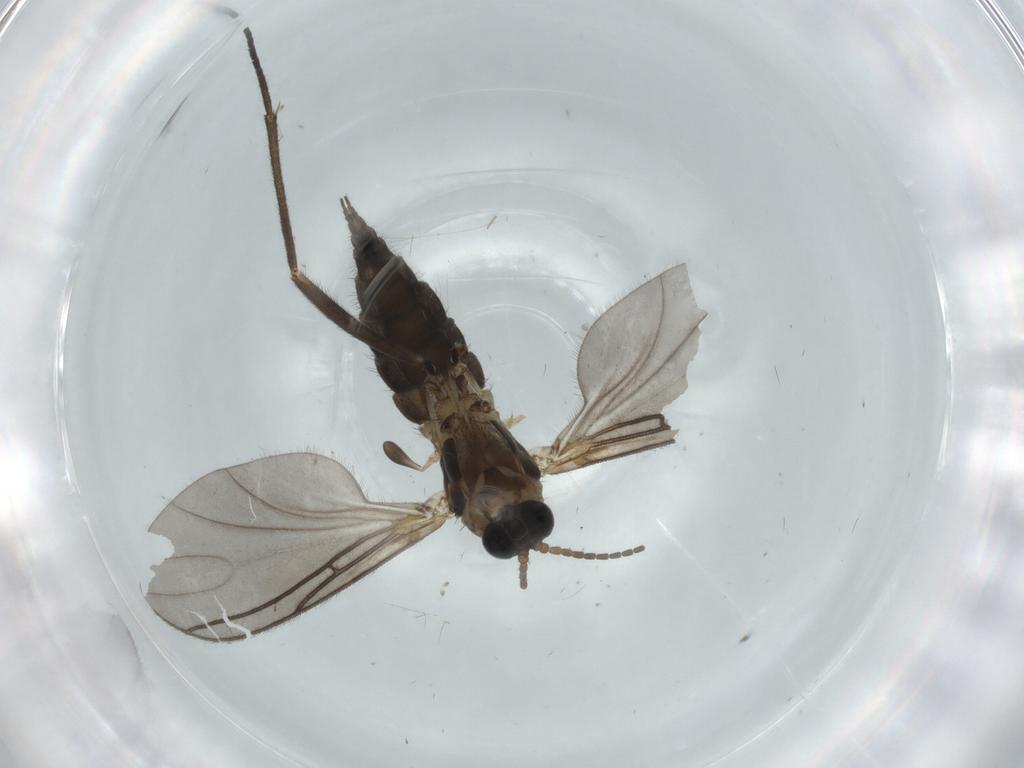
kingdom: Animalia
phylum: Arthropoda
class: Insecta
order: Diptera
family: Sciaridae
